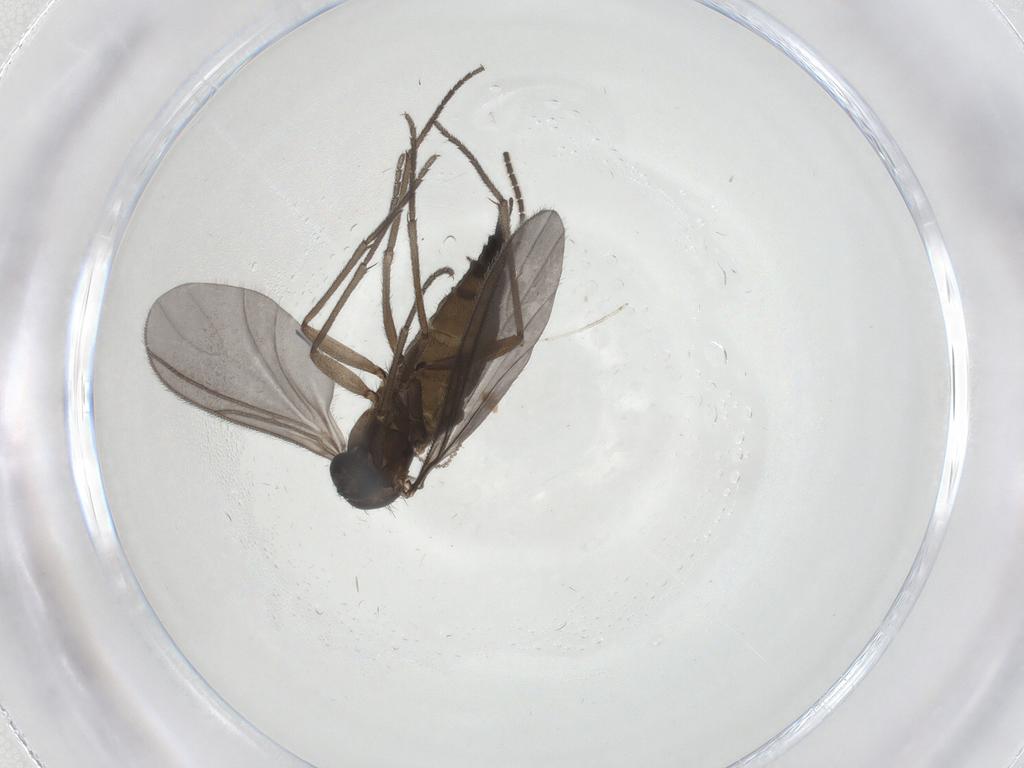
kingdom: Animalia
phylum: Arthropoda
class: Insecta
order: Diptera
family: Sciaridae
